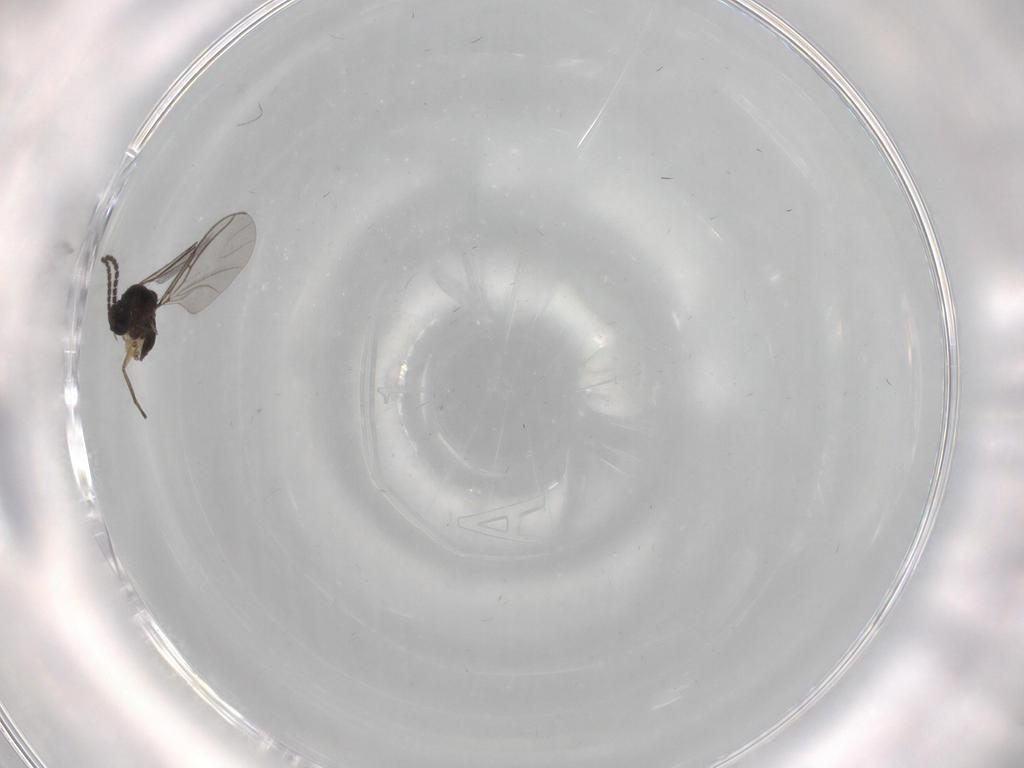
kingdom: Animalia
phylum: Arthropoda
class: Insecta
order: Diptera
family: Sciaridae
